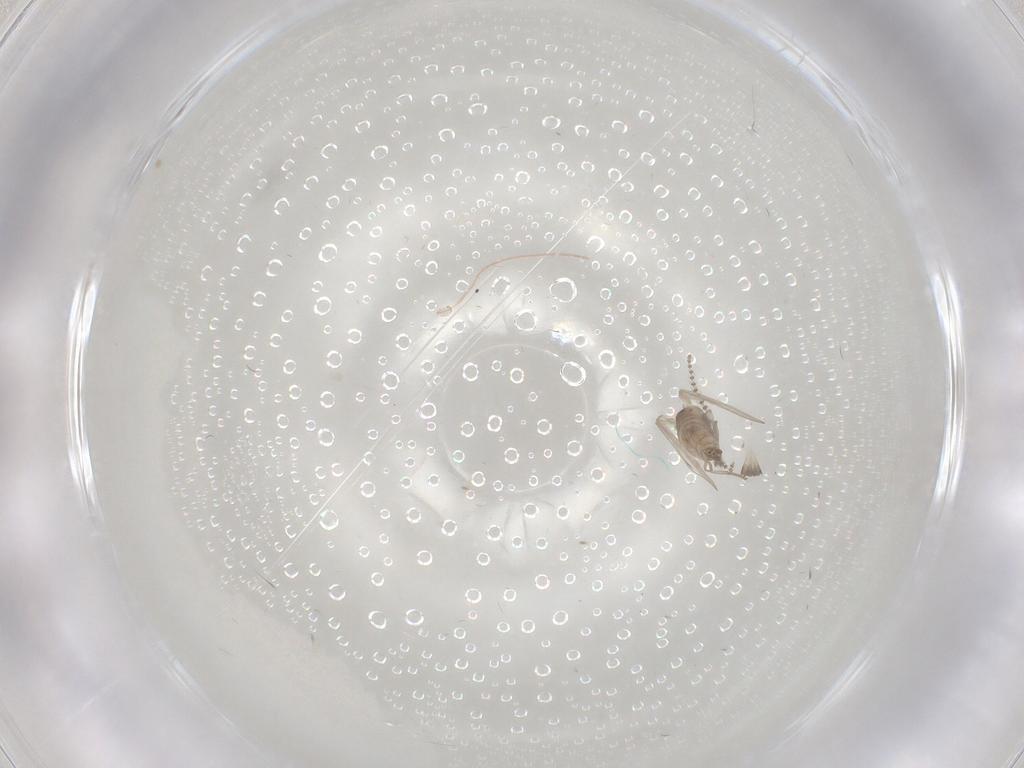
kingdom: Animalia
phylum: Arthropoda
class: Insecta
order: Diptera
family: Psychodidae
